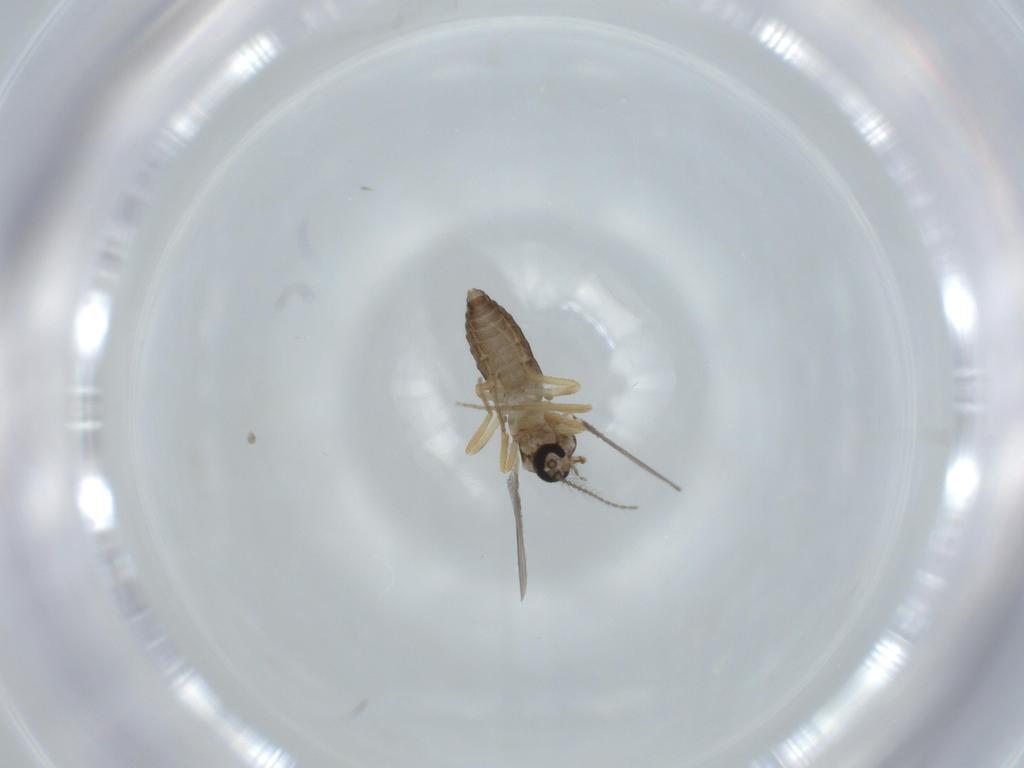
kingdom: Animalia
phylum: Arthropoda
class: Insecta
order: Diptera
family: Ceratopogonidae
